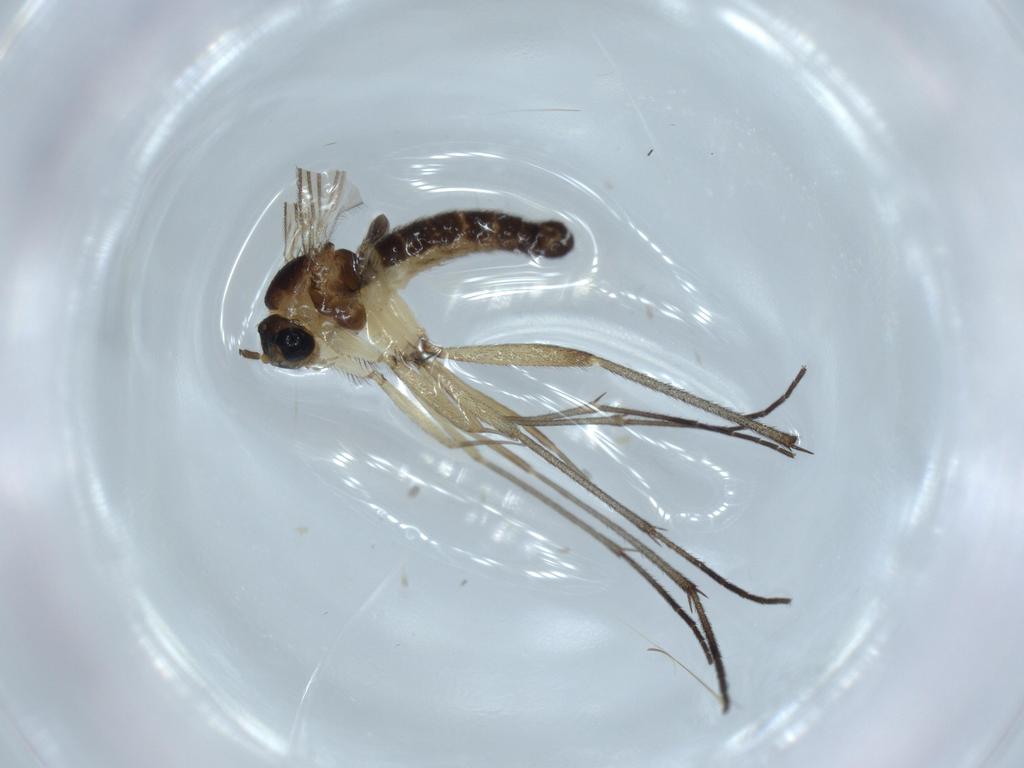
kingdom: Animalia
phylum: Arthropoda
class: Insecta
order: Diptera
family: Sciaridae
